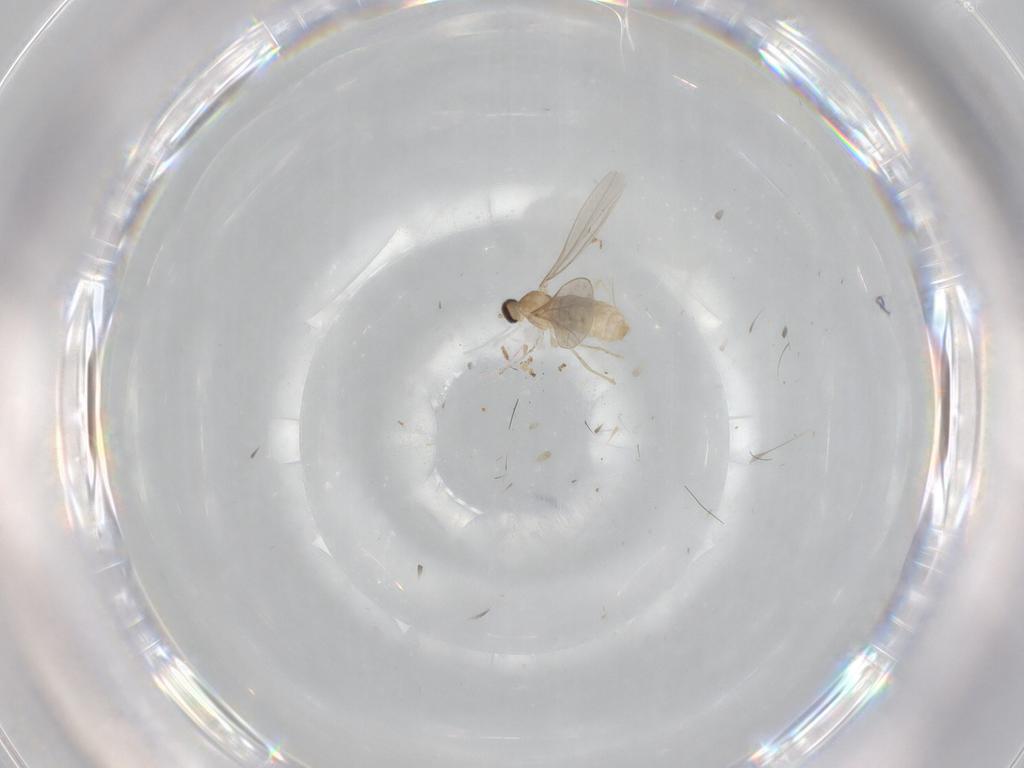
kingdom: Animalia
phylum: Arthropoda
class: Insecta
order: Diptera
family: Cecidomyiidae
